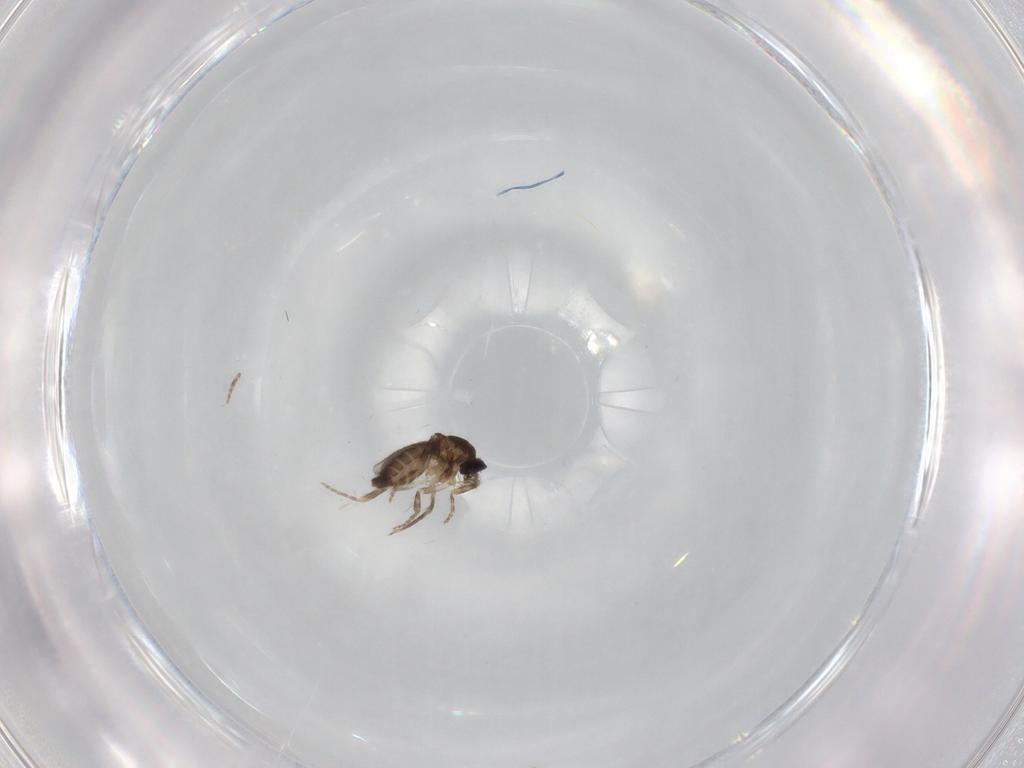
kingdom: Animalia
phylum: Arthropoda
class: Insecta
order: Diptera
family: Ceratopogonidae
